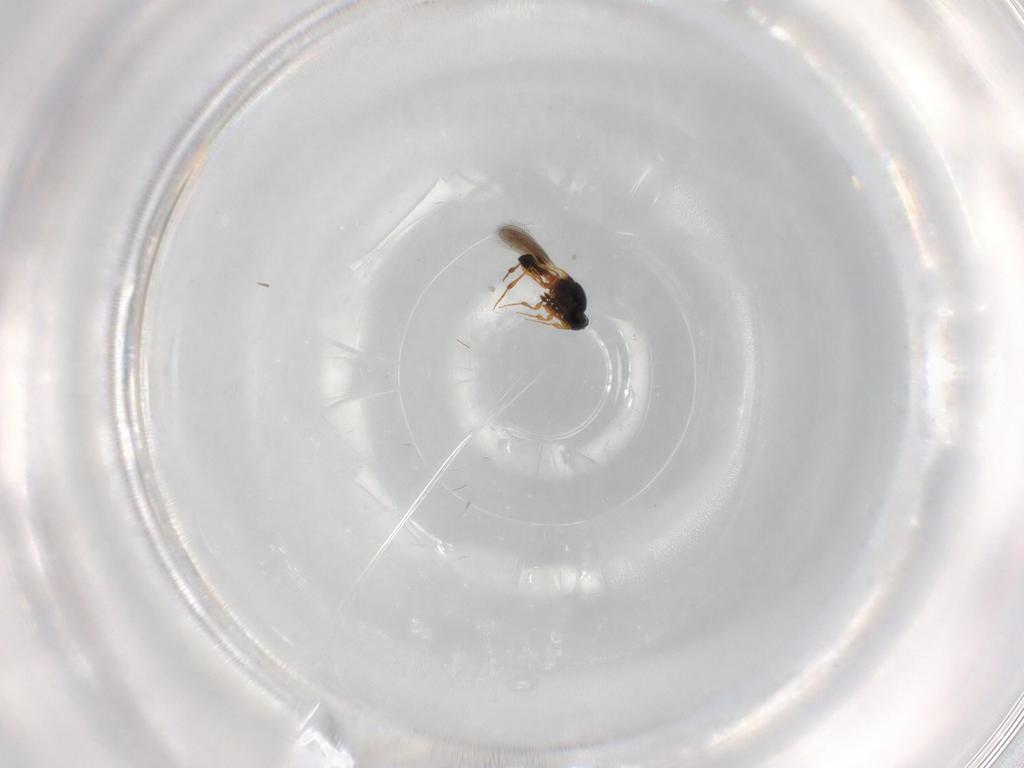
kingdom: Animalia
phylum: Arthropoda
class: Insecta
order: Hymenoptera
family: Platygastridae
